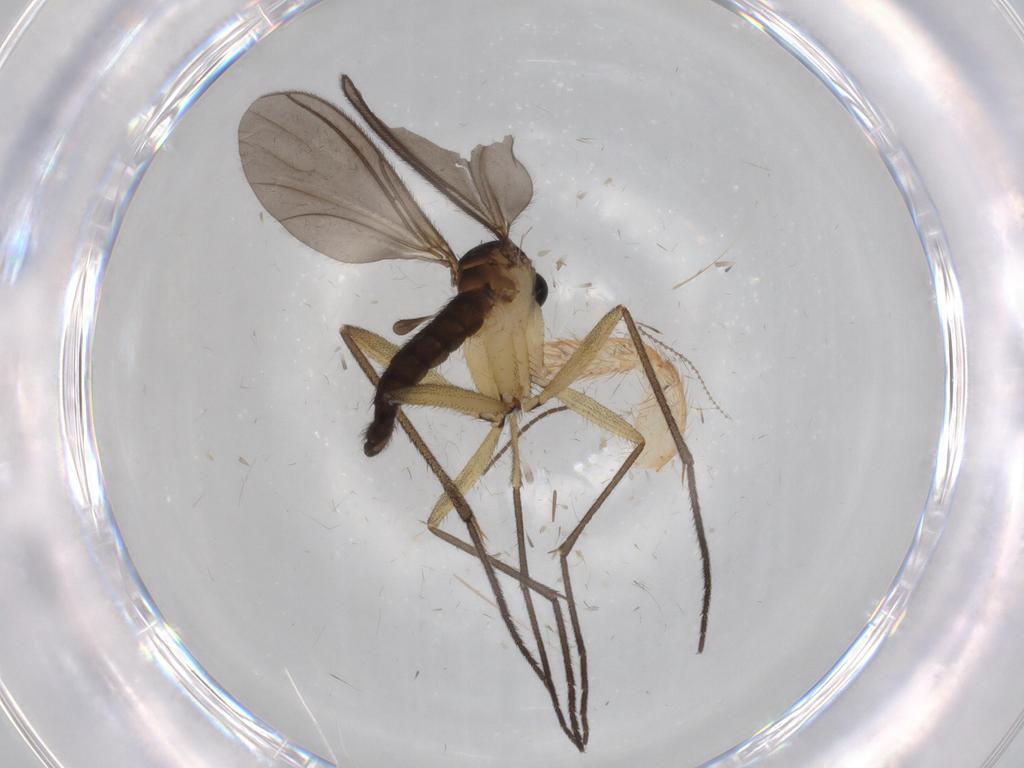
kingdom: Animalia
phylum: Arthropoda
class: Insecta
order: Diptera
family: Sciaridae
